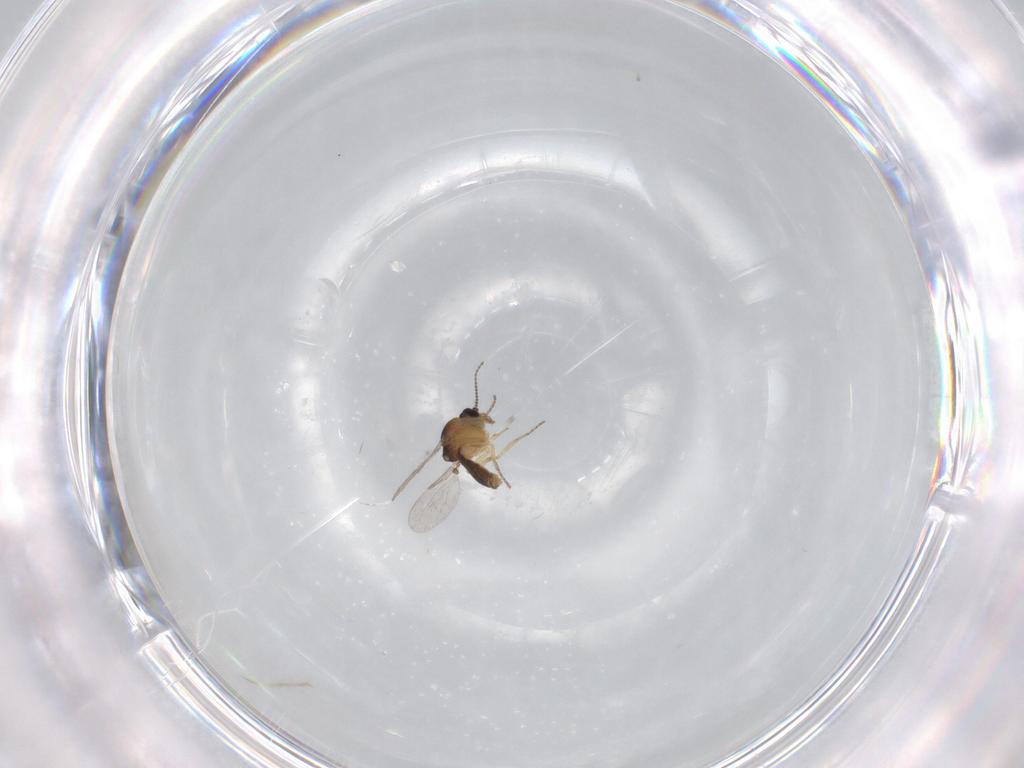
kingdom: Animalia
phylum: Arthropoda
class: Insecta
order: Diptera
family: Ceratopogonidae
